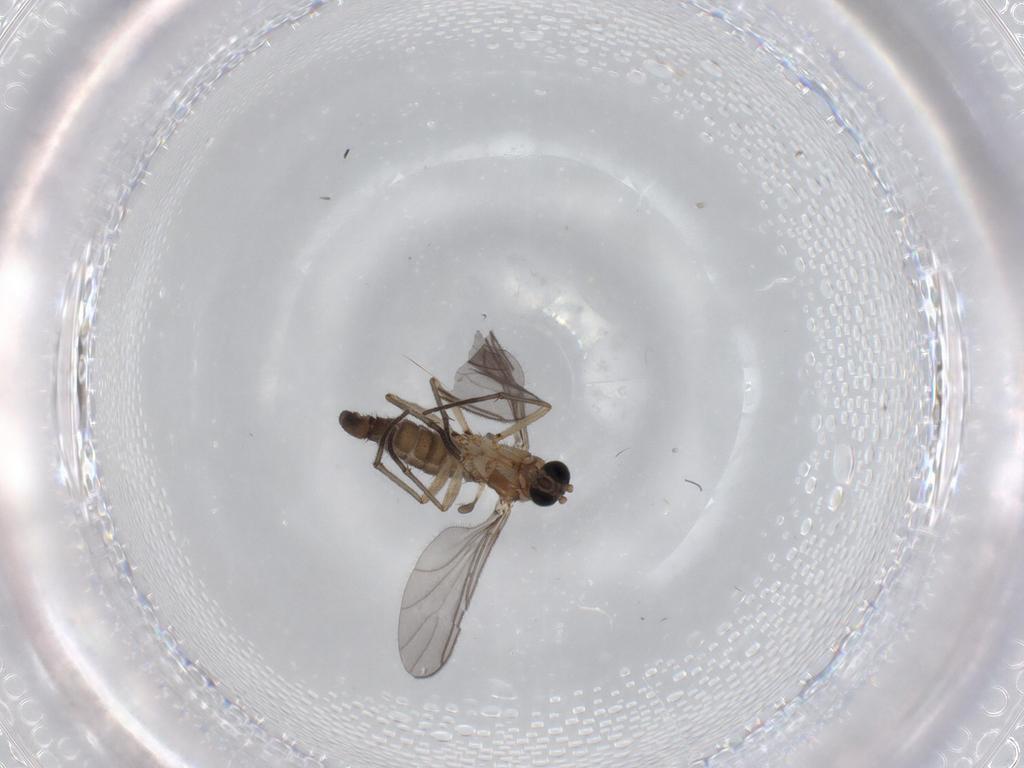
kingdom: Animalia
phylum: Arthropoda
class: Insecta
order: Diptera
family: Sciaridae
